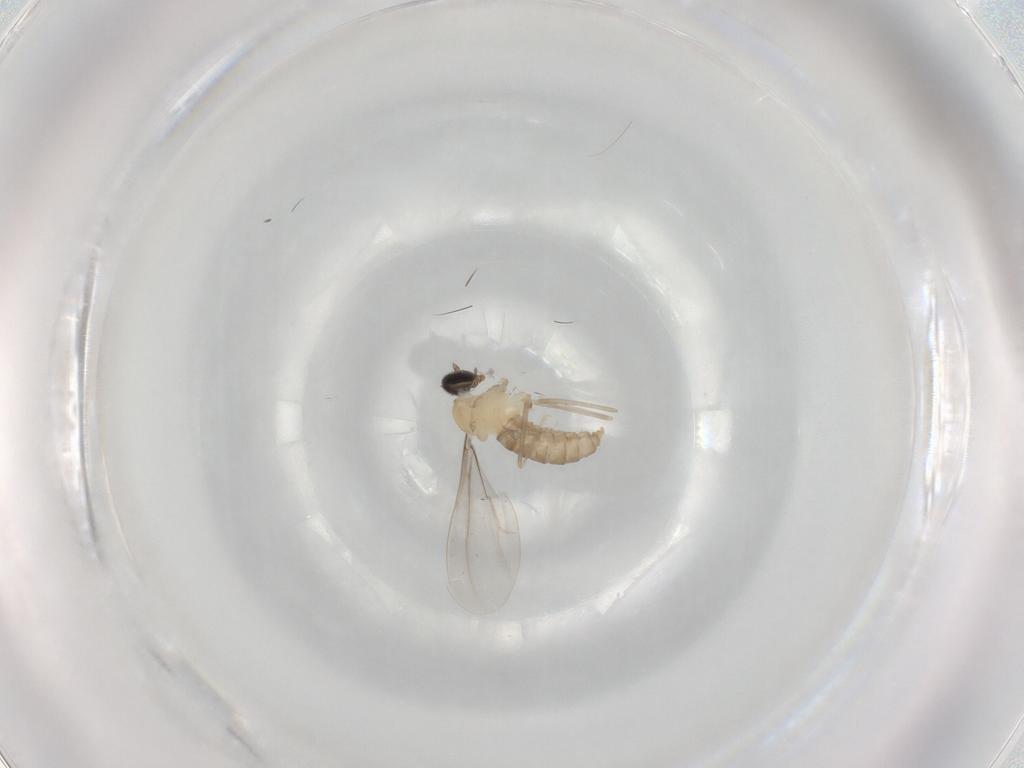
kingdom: Animalia
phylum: Arthropoda
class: Insecta
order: Diptera
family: Cecidomyiidae
